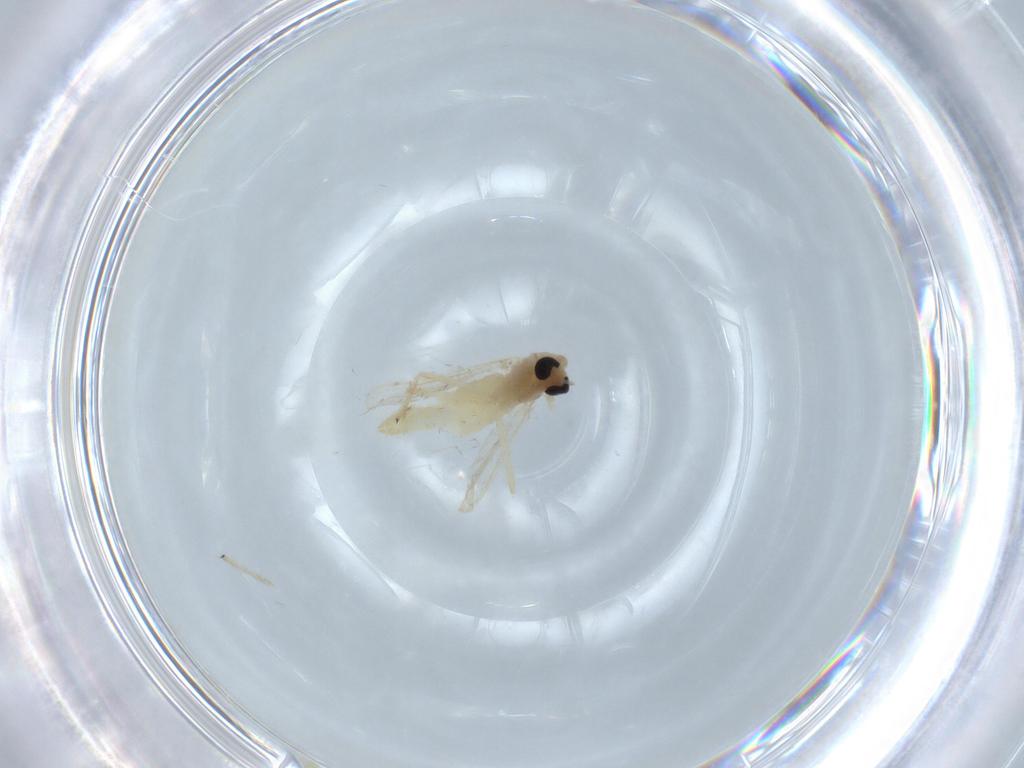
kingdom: Animalia
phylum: Arthropoda
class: Insecta
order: Diptera
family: Chironomidae
